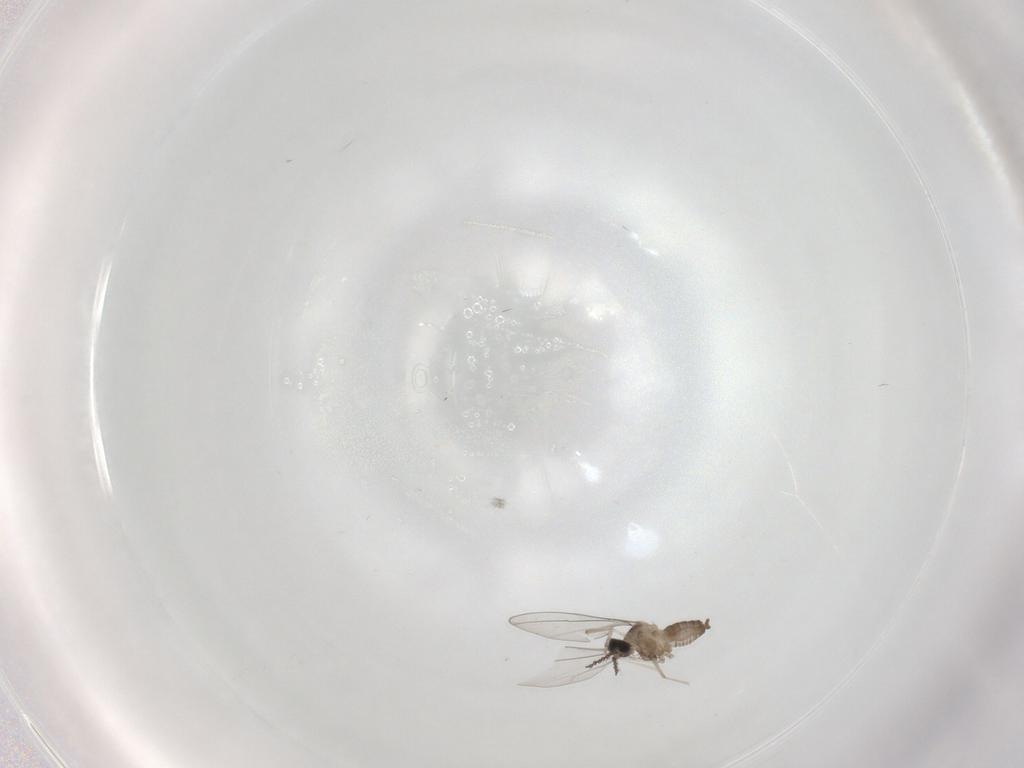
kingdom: Animalia
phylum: Arthropoda
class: Insecta
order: Diptera
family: Cecidomyiidae
